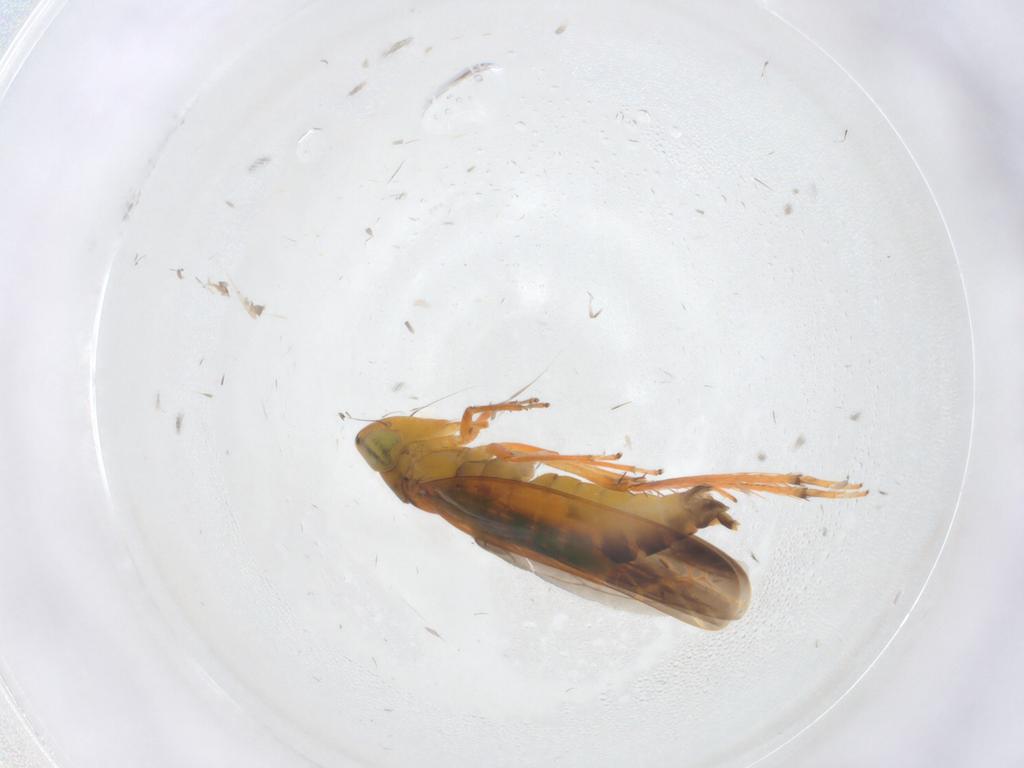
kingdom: Animalia
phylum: Arthropoda
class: Insecta
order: Hemiptera
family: Cicadellidae
